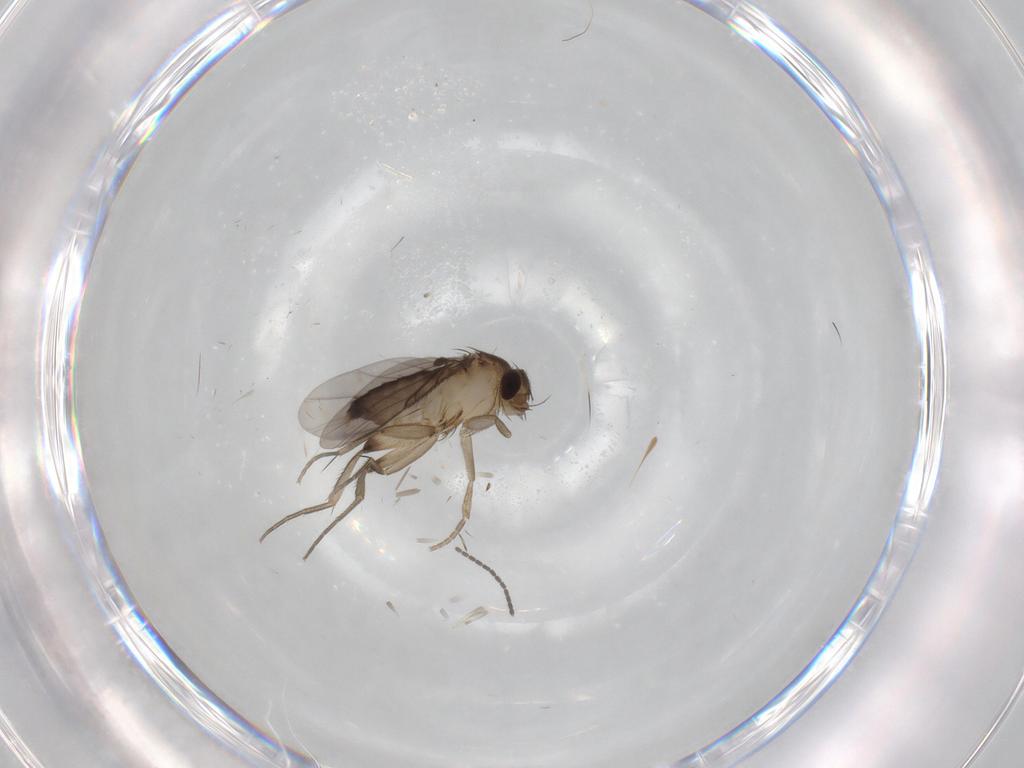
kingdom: Animalia
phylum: Arthropoda
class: Insecta
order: Diptera
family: Phoridae
